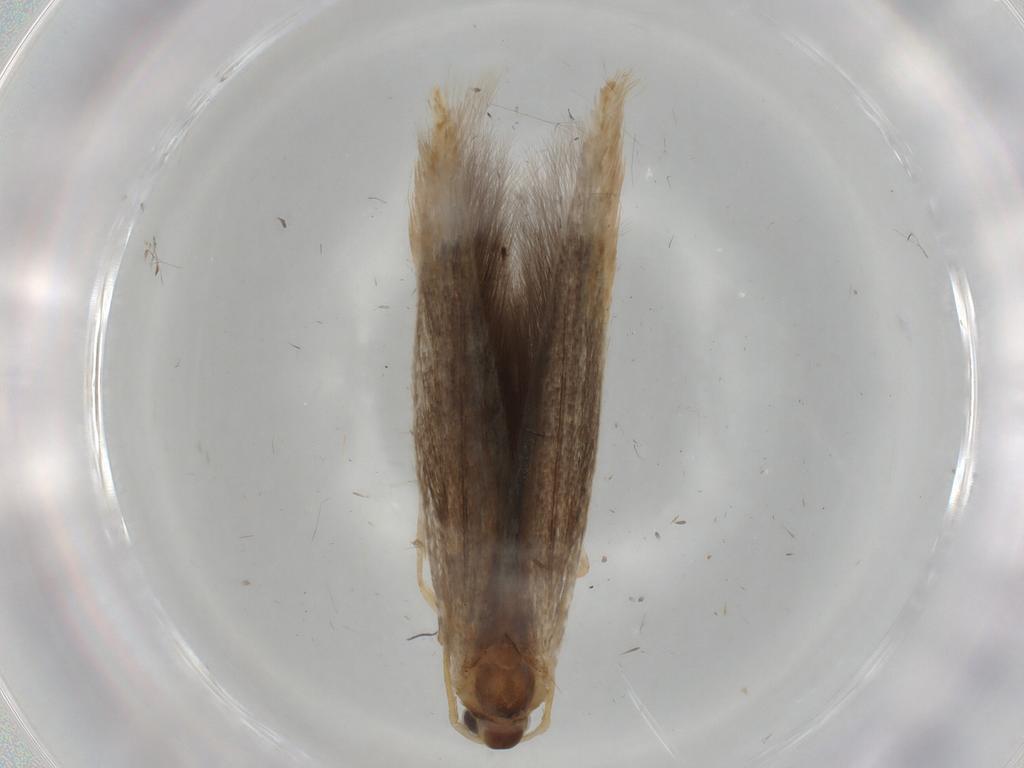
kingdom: Animalia
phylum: Arthropoda
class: Insecta
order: Lepidoptera
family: Coleophoridae
